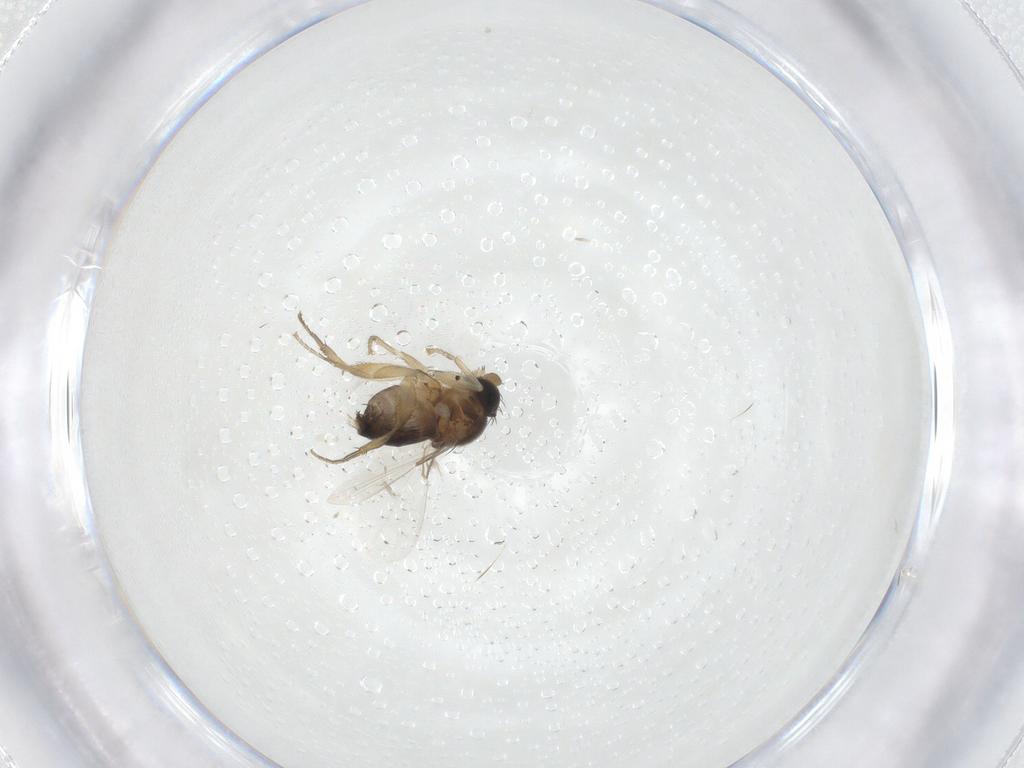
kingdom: Animalia
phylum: Arthropoda
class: Insecta
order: Diptera
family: Phoridae
